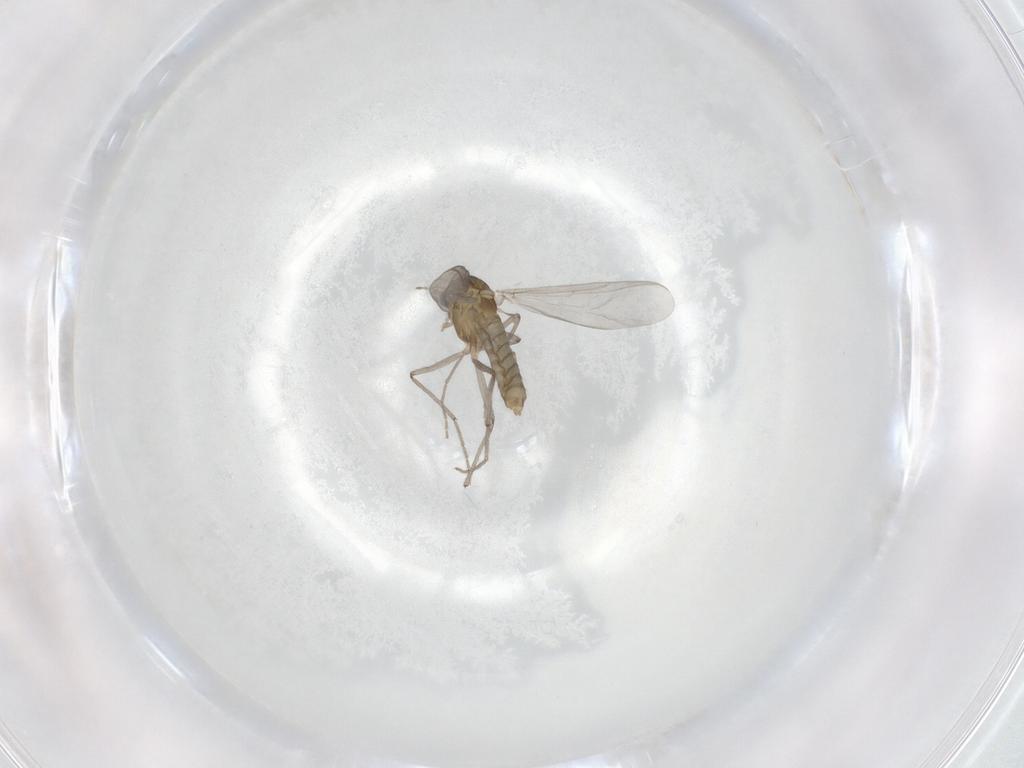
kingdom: Animalia
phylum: Arthropoda
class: Insecta
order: Diptera
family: Chironomidae
